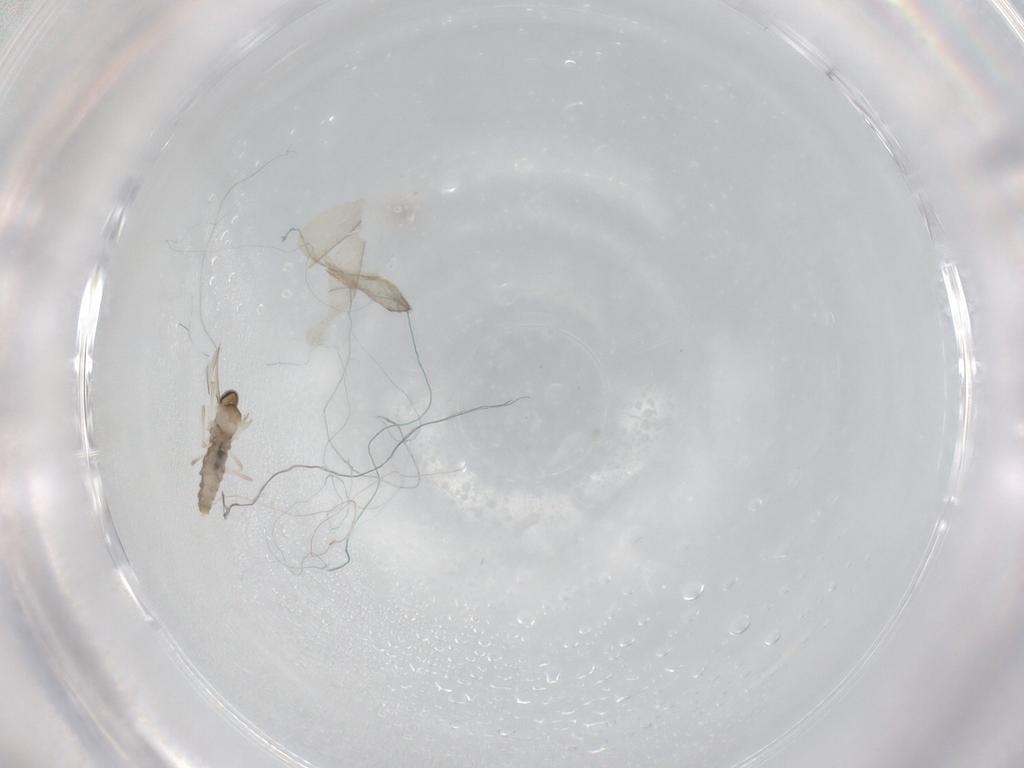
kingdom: Animalia
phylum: Arthropoda
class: Insecta
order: Diptera
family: Cecidomyiidae
